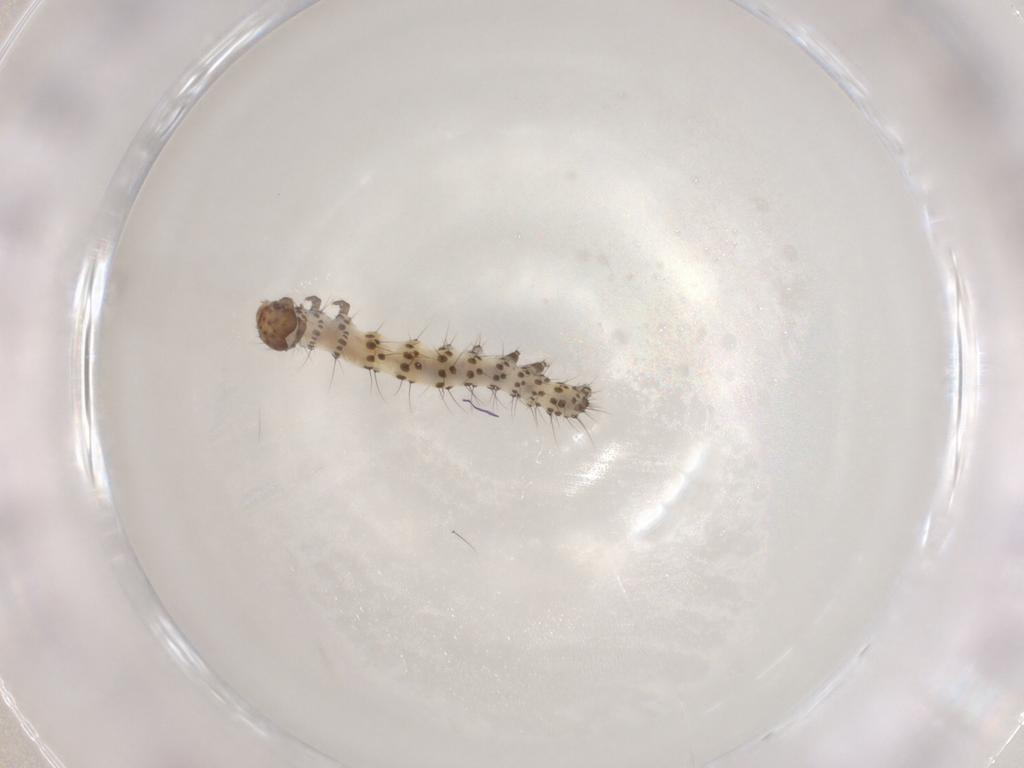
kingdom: Animalia
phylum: Arthropoda
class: Insecta
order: Lepidoptera
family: Noctuidae
